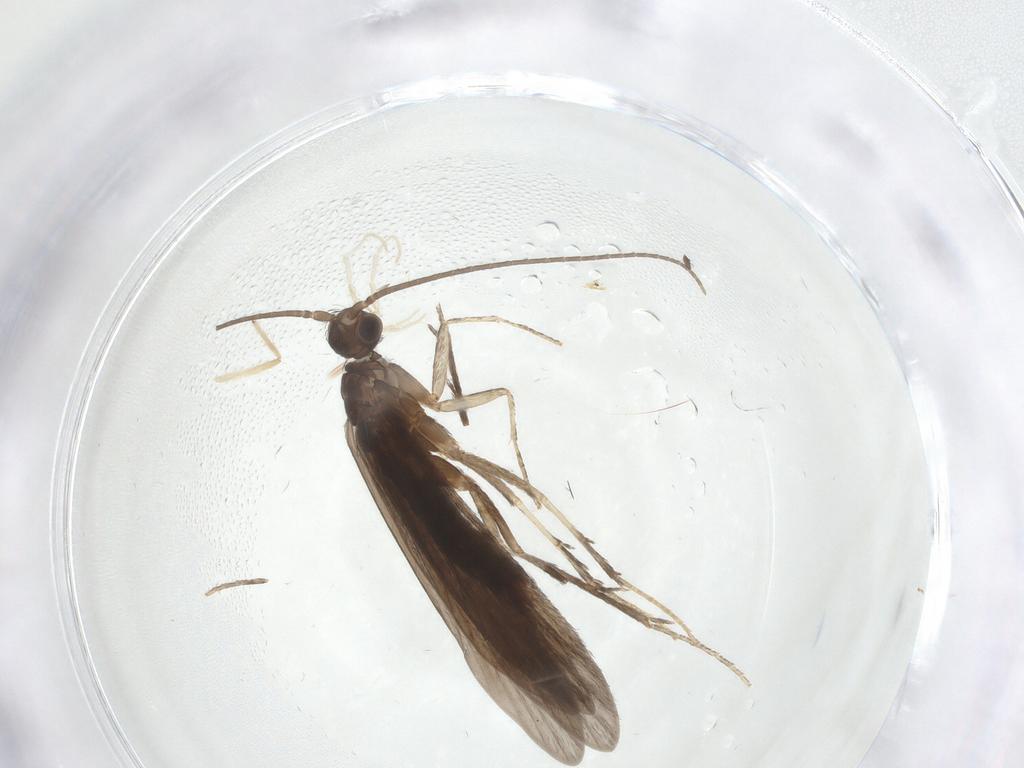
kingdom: Animalia
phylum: Arthropoda
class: Insecta
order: Trichoptera
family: Xiphocentronidae
